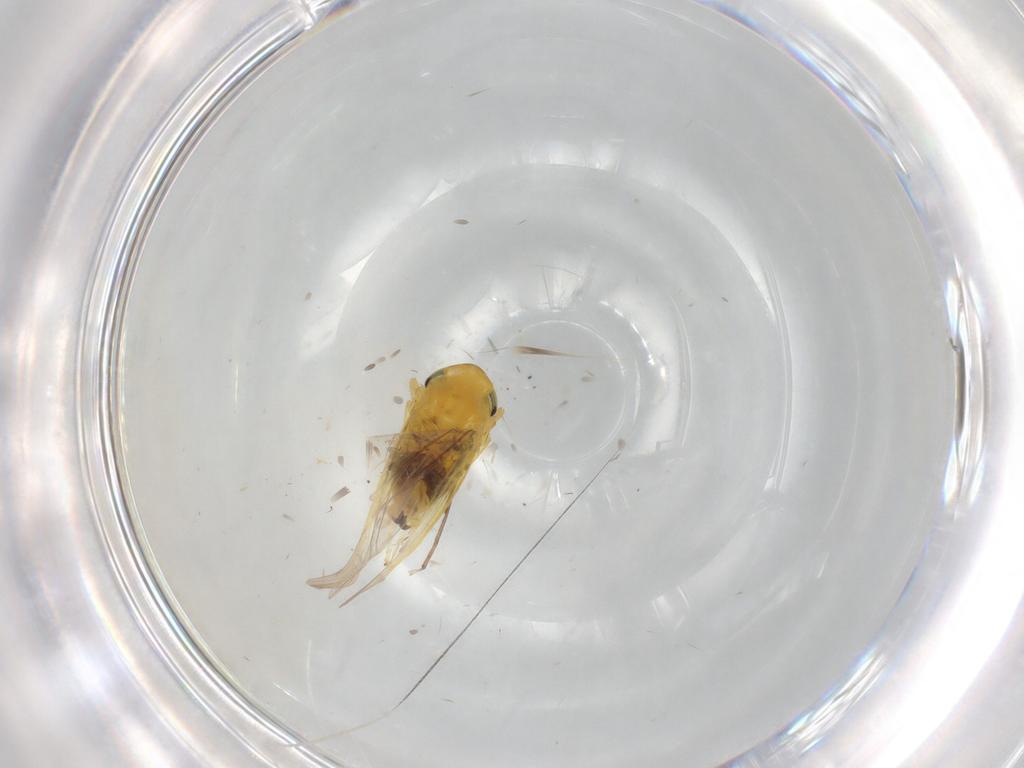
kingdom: Animalia
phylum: Arthropoda
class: Insecta
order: Hemiptera
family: Cicadellidae
